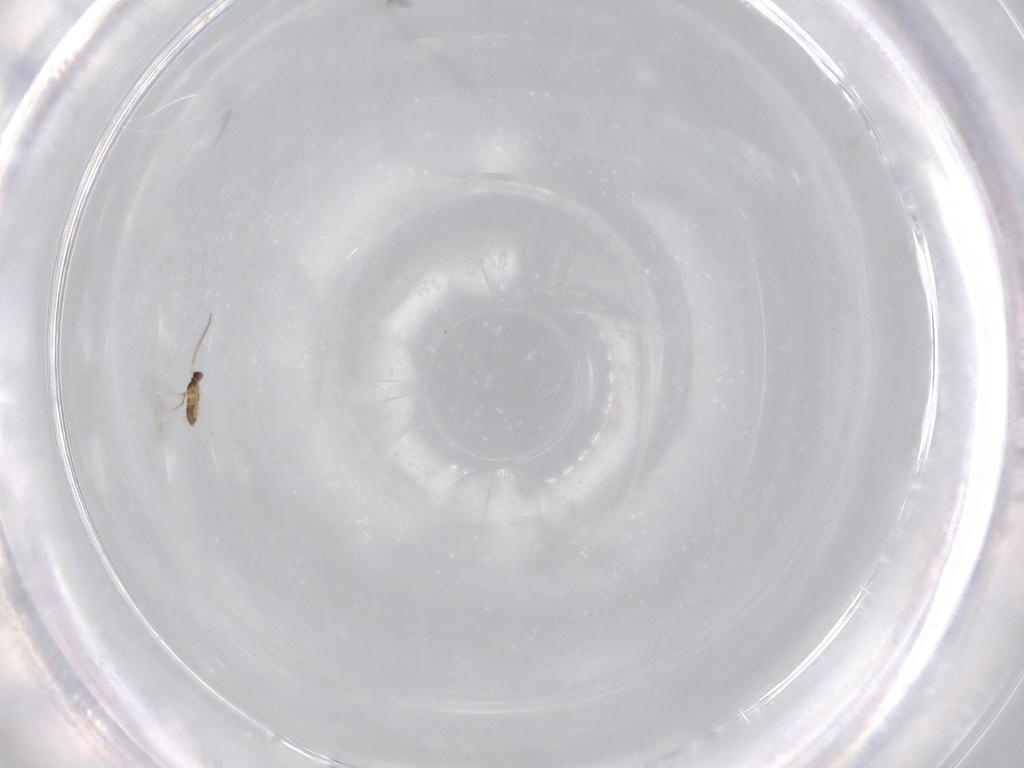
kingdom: Animalia
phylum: Arthropoda
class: Insecta
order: Hymenoptera
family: Mymaridae
